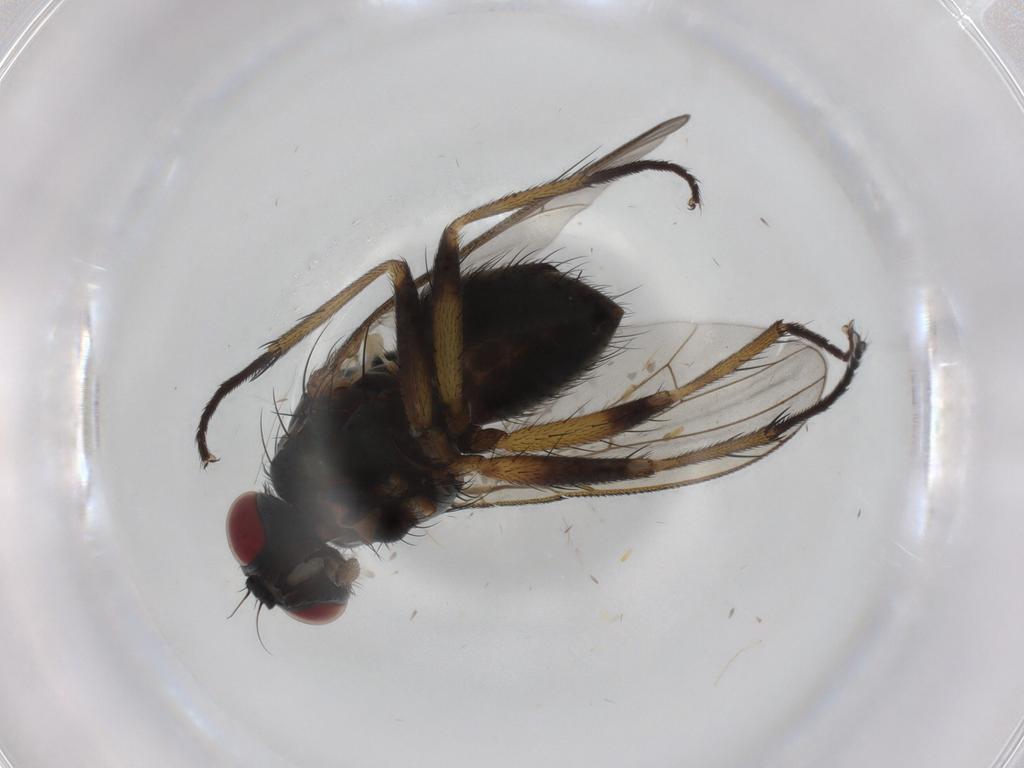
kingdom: Animalia
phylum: Arthropoda
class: Insecta
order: Diptera
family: Muscidae
